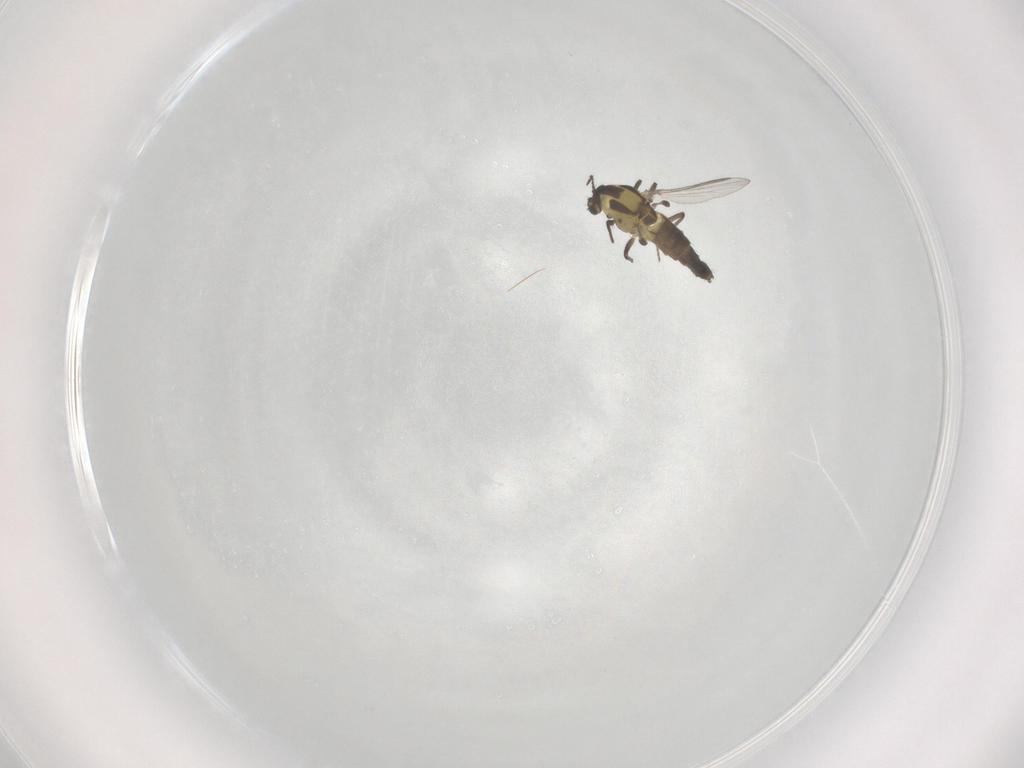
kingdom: Animalia
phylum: Arthropoda
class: Insecta
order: Diptera
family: Chironomidae
